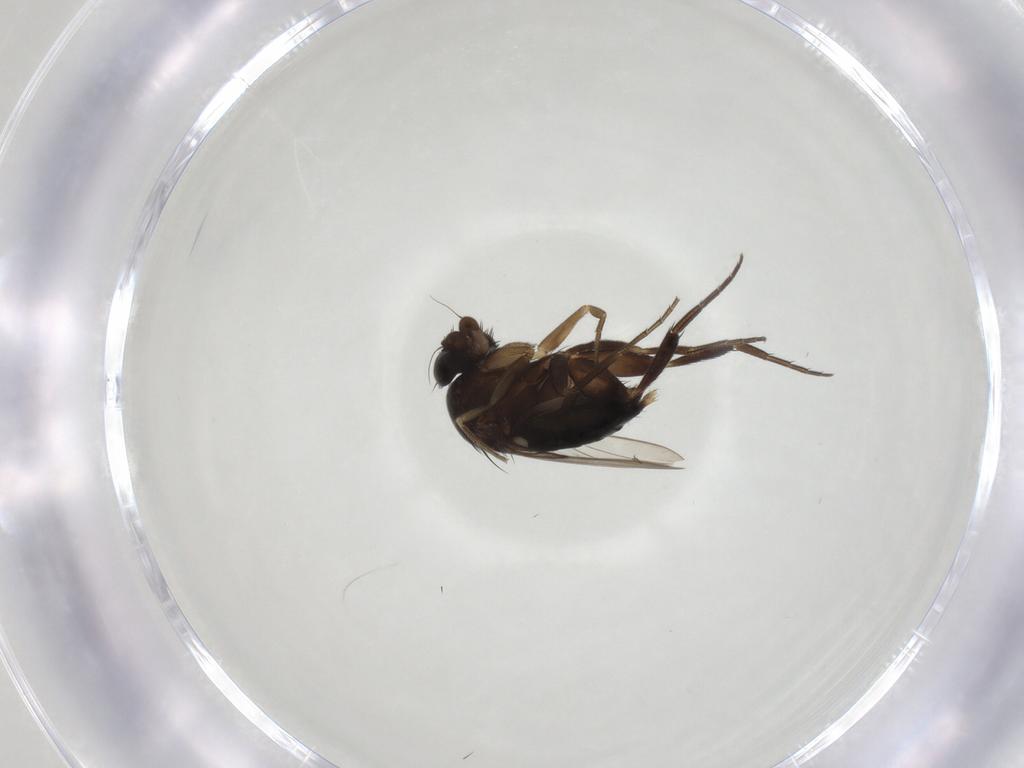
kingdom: Animalia
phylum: Arthropoda
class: Insecta
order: Diptera
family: Phoridae
